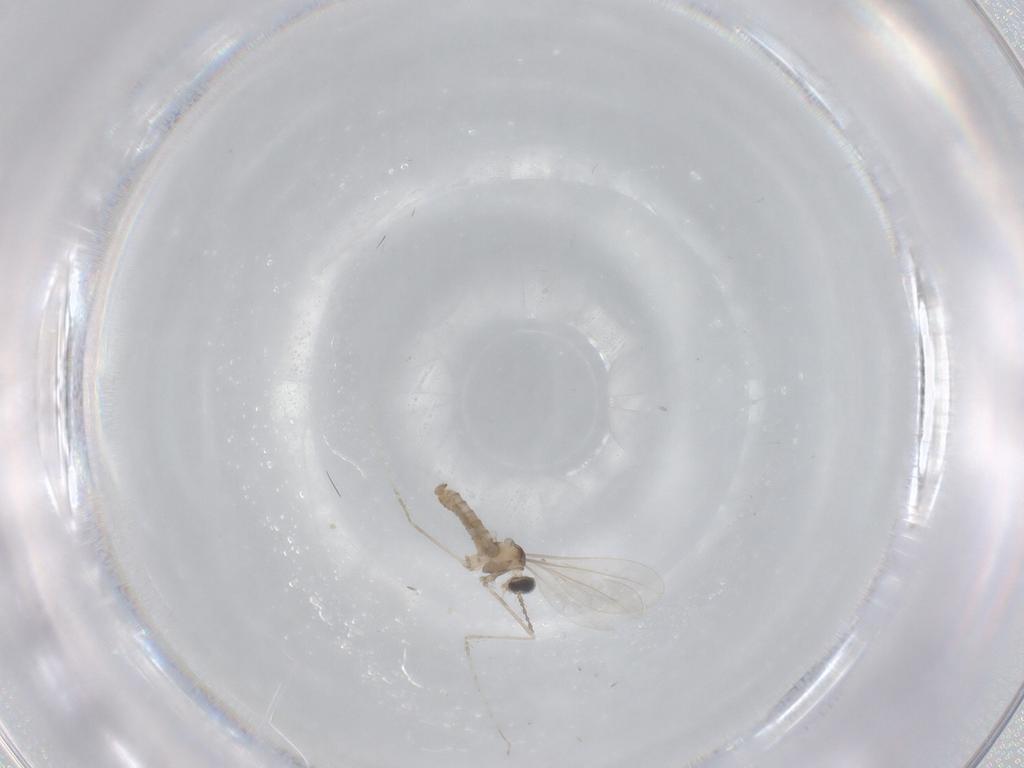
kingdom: Animalia
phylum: Arthropoda
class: Insecta
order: Diptera
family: Cecidomyiidae
